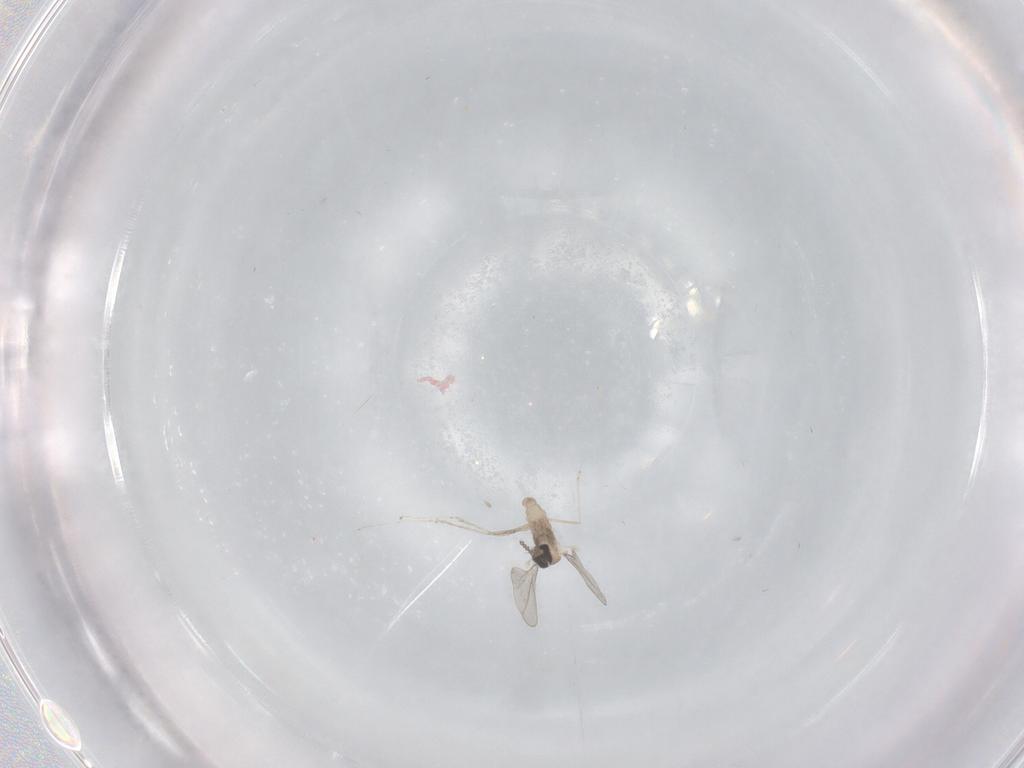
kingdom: Animalia
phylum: Arthropoda
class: Insecta
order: Diptera
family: Cecidomyiidae
